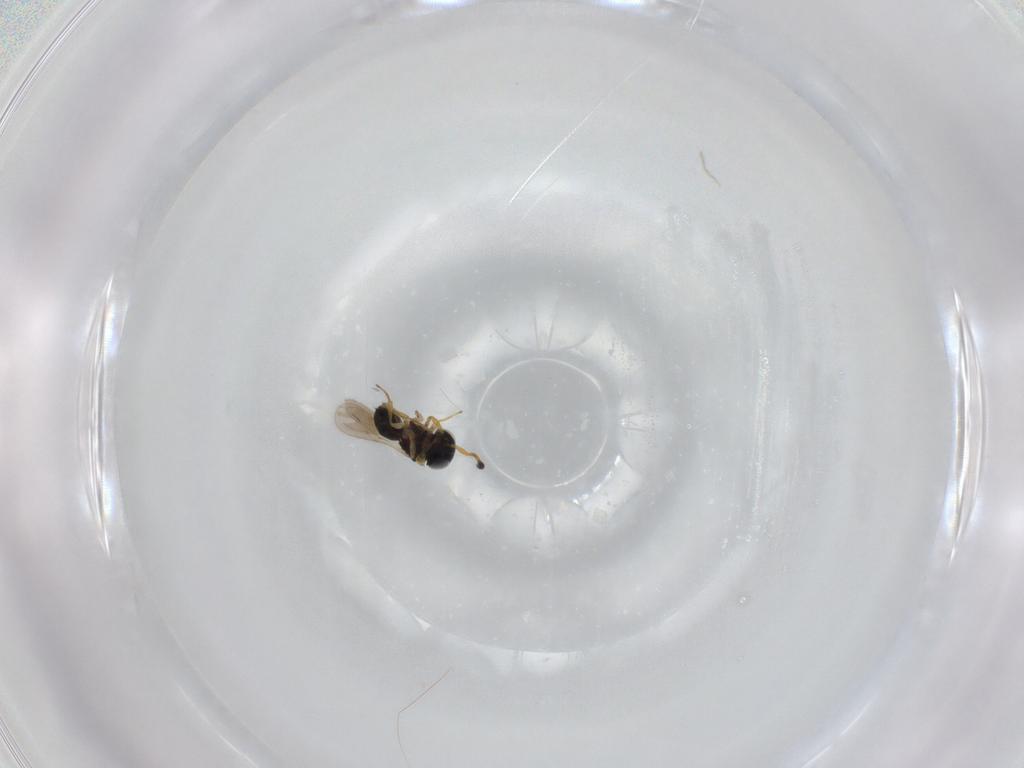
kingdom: Animalia
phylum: Arthropoda
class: Insecta
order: Hymenoptera
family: Scelionidae
